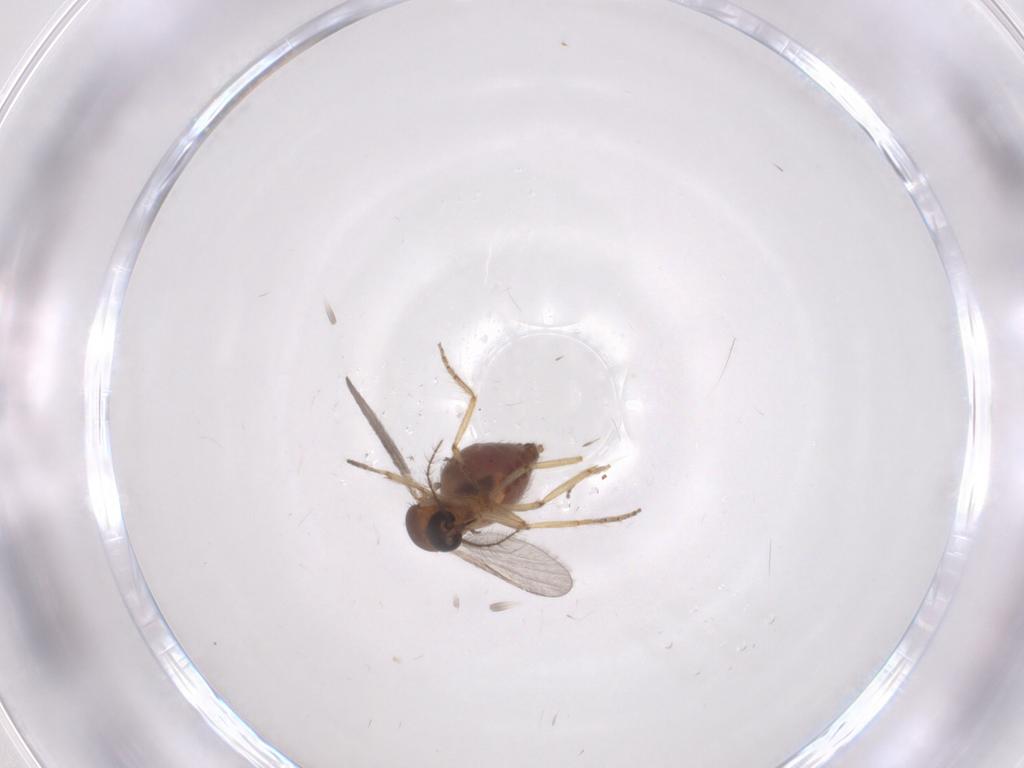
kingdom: Animalia
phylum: Arthropoda
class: Insecta
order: Diptera
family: Ceratopogonidae
